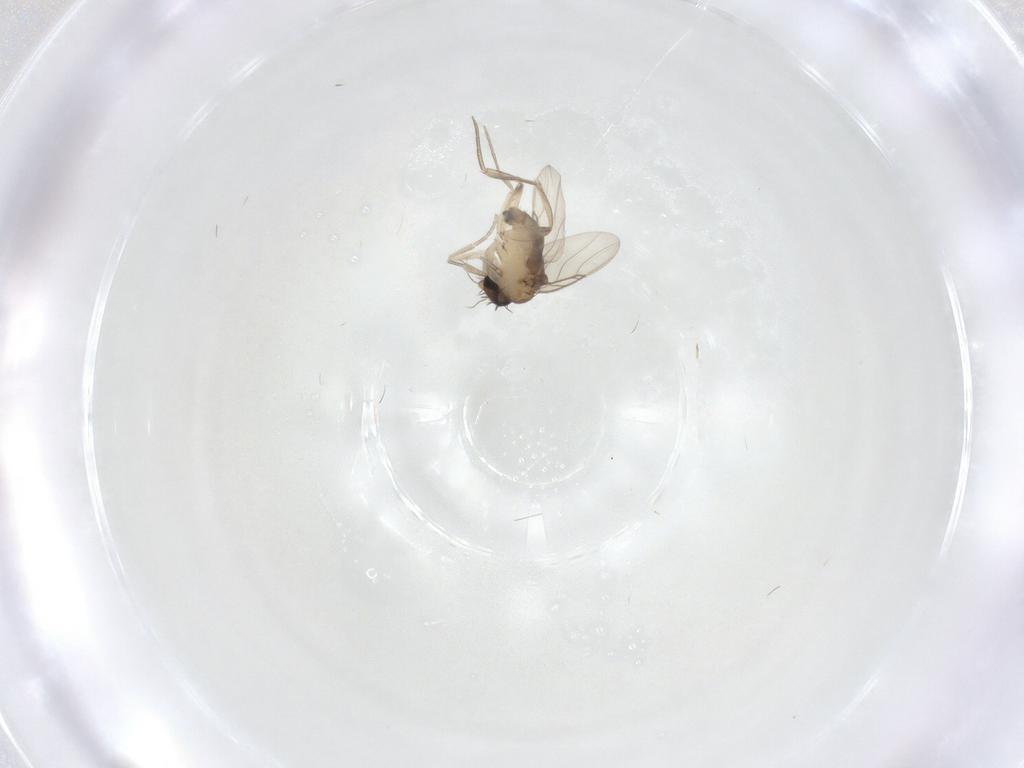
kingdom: Animalia
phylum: Arthropoda
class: Insecta
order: Diptera
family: Phoridae
